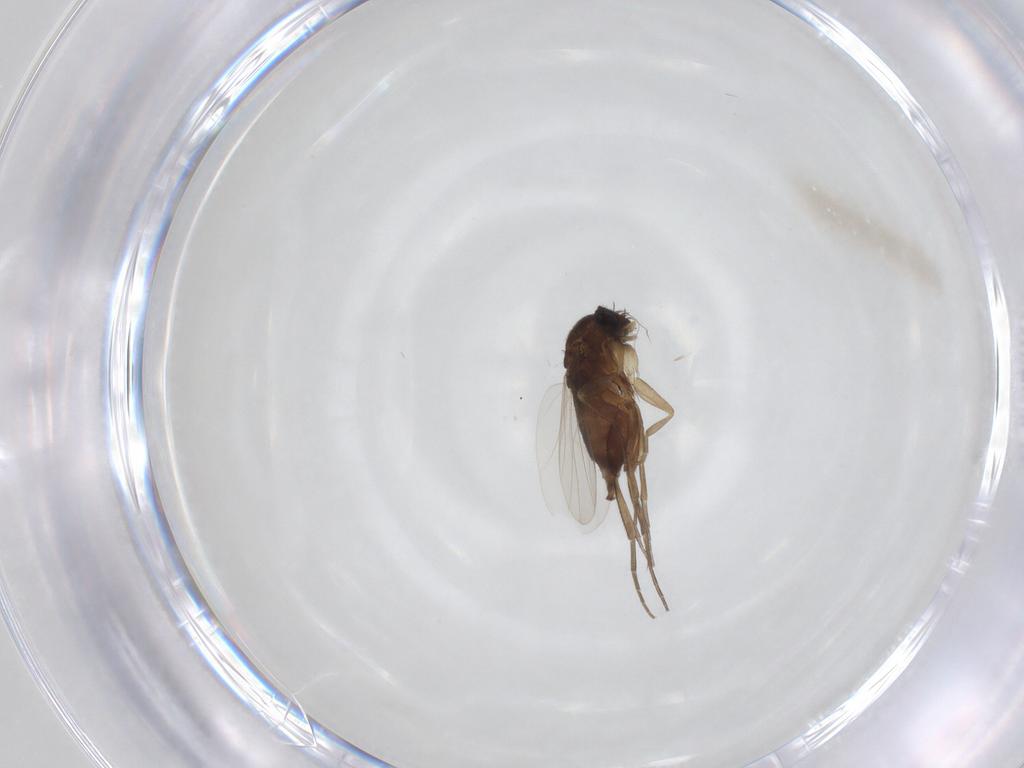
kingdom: Animalia
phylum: Arthropoda
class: Insecta
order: Diptera
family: Phoridae
